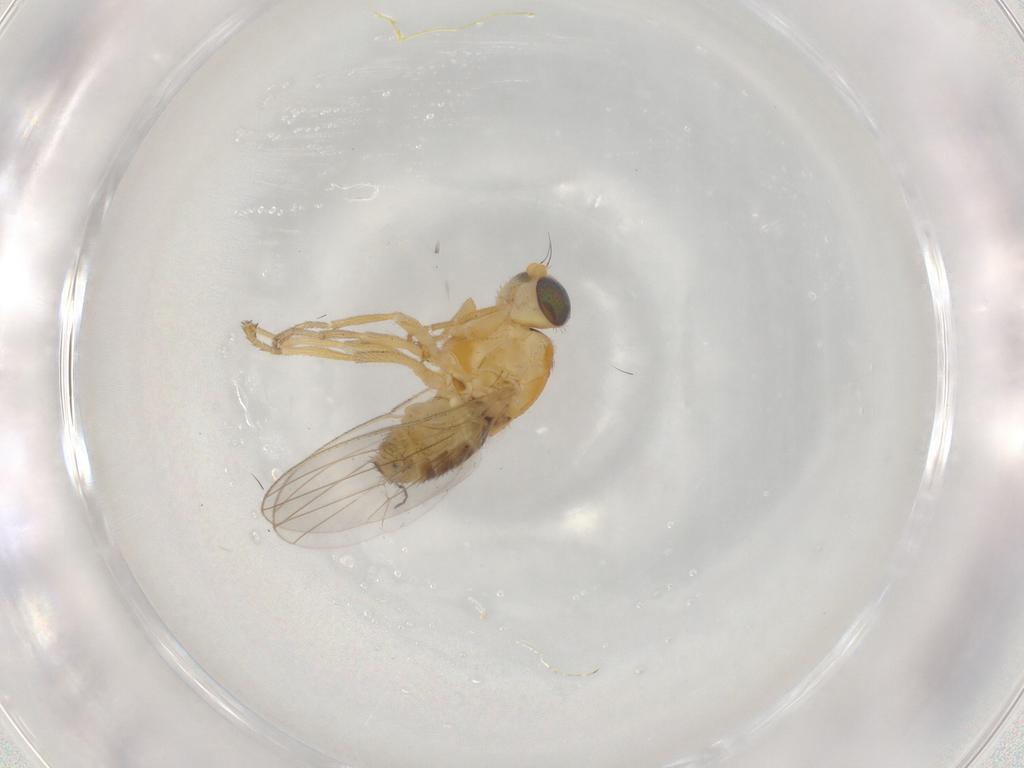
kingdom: Animalia
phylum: Arthropoda
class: Insecta
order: Diptera
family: Chyromyidae
